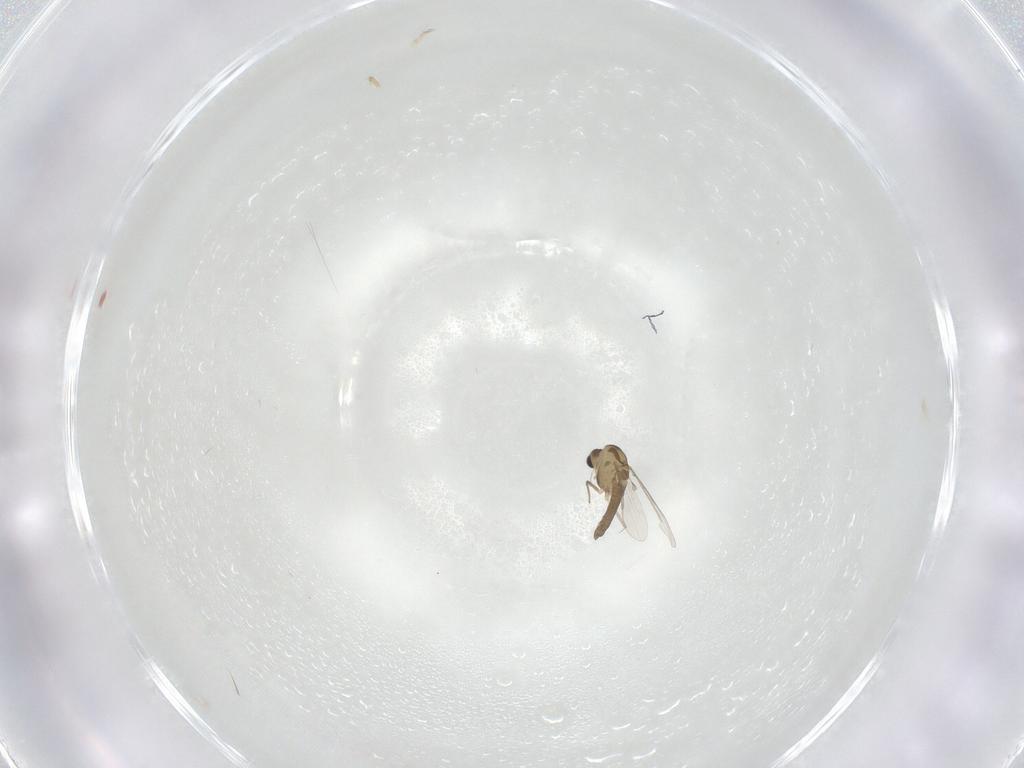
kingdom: Animalia
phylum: Arthropoda
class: Insecta
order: Diptera
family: Chironomidae
